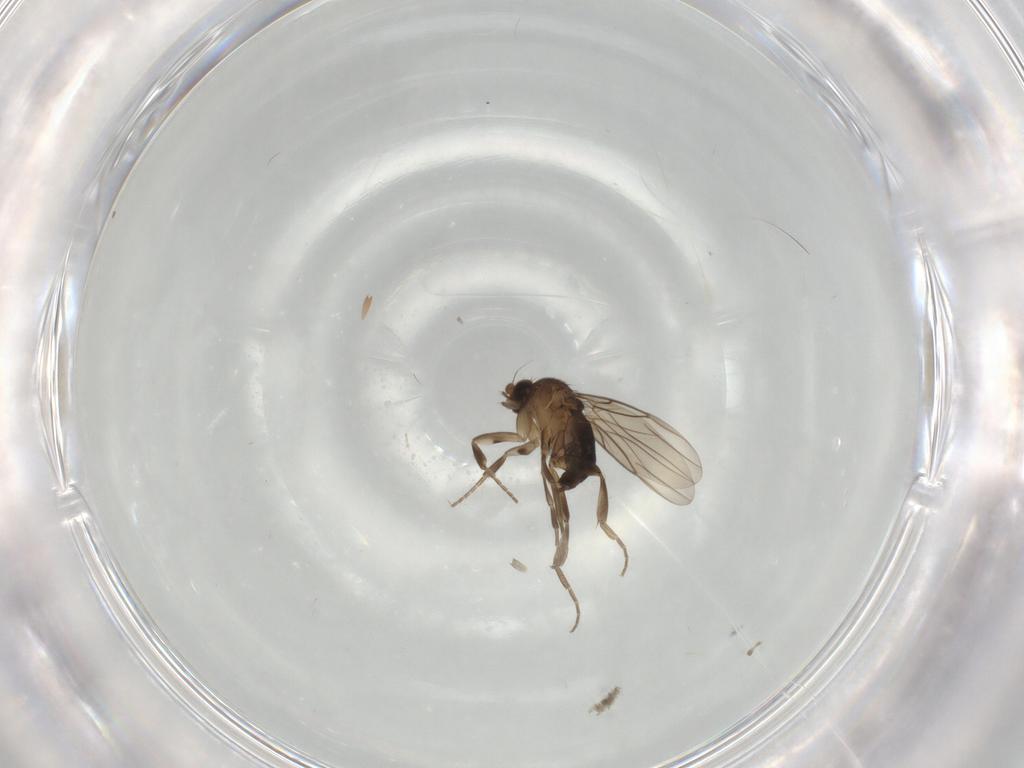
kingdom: Animalia
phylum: Arthropoda
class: Insecta
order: Diptera
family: Phoridae
